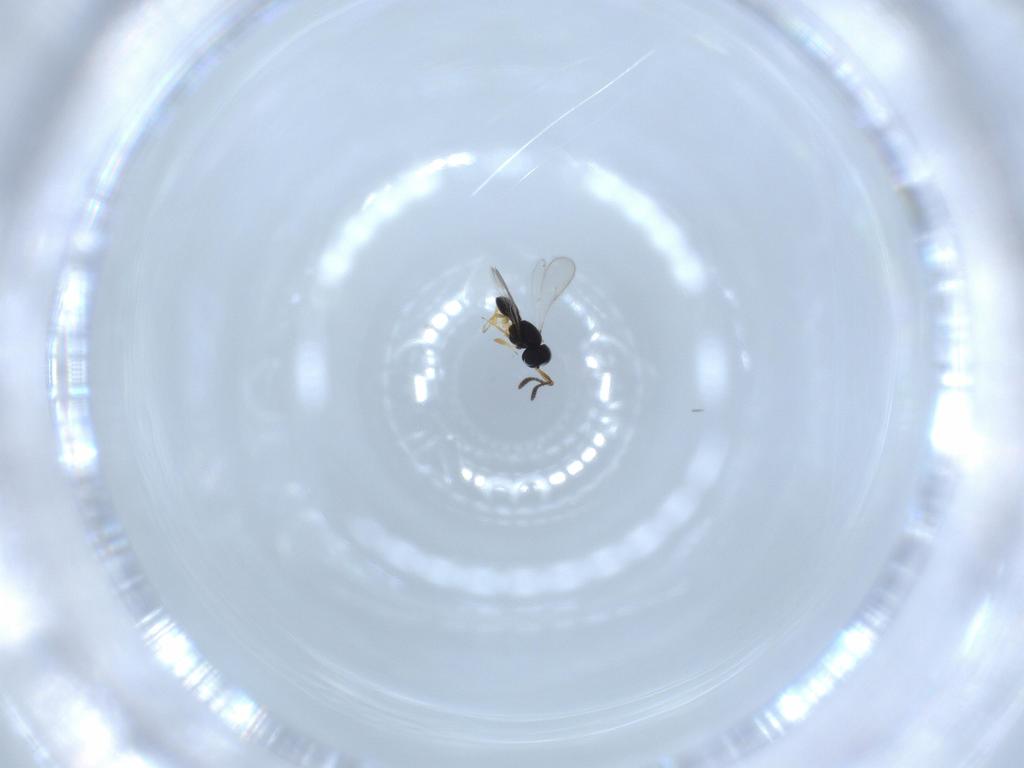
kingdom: Animalia
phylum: Arthropoda
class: Insecta
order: Hymenoptera
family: Scelionidae
